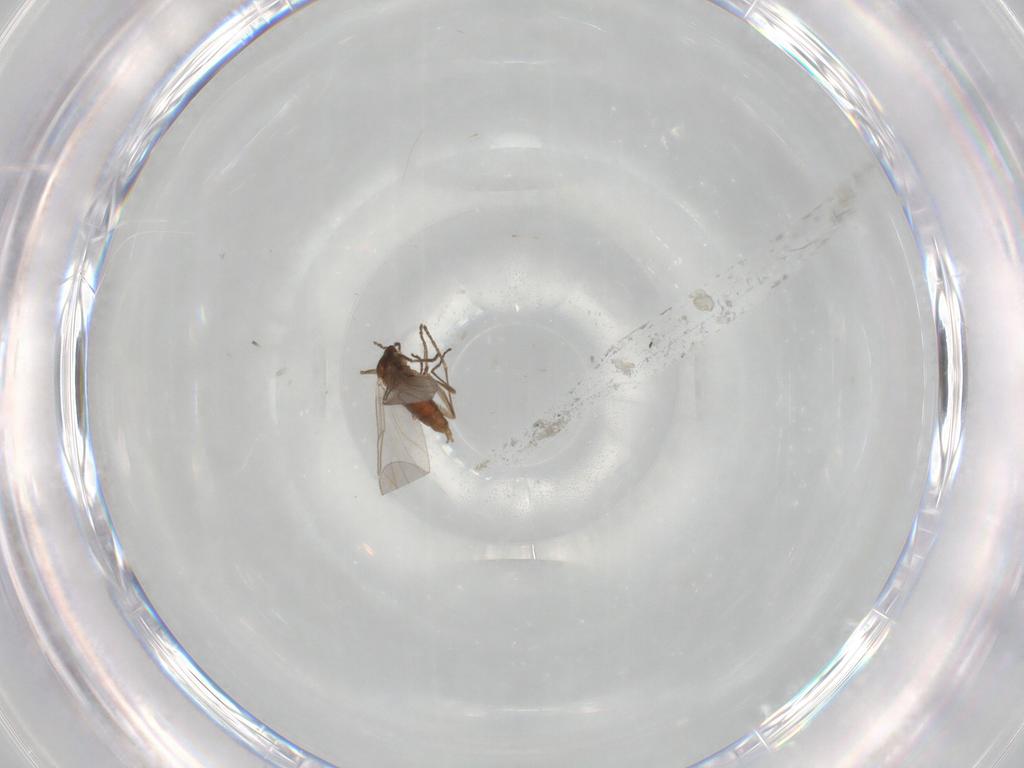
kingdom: Animalia
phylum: Arthropoda
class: Insecta
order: Diptera
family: Cecidomyiidae
